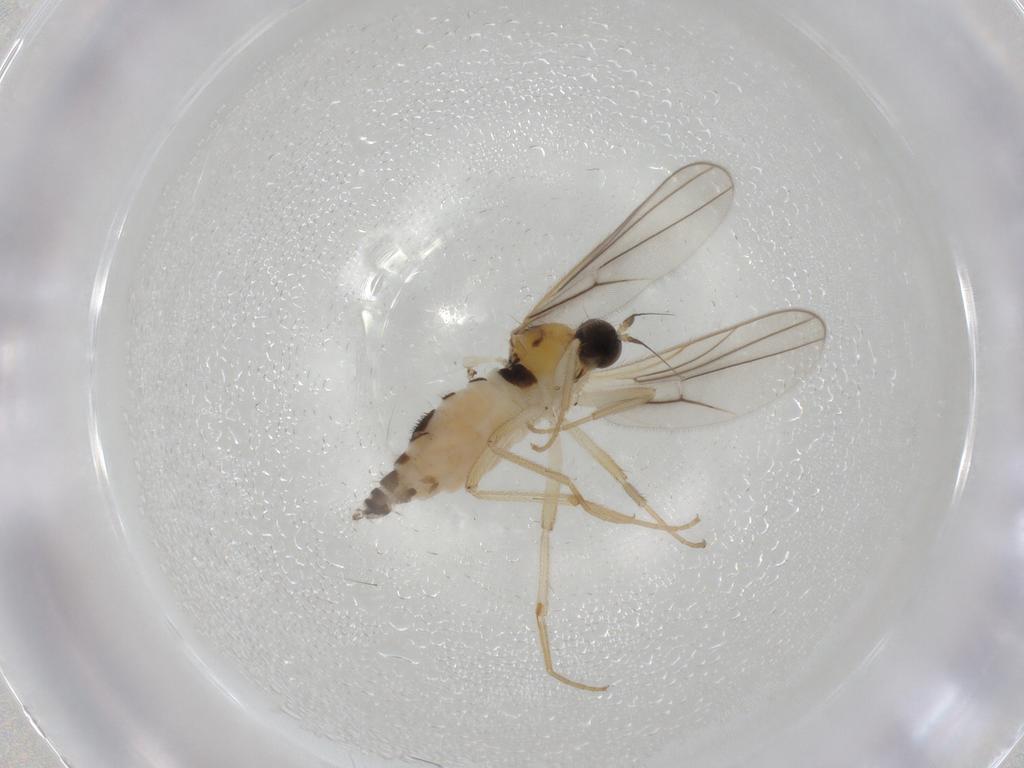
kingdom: Animalia
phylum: Arthropoda
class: Insecta
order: Diptera
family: Hybotidae
